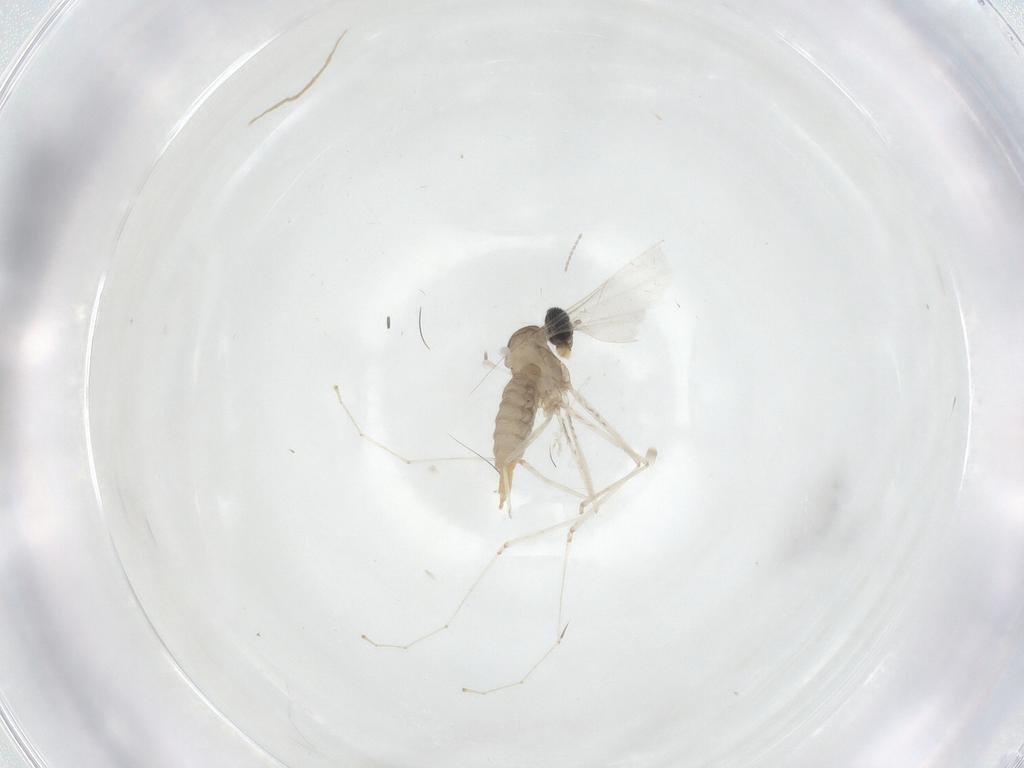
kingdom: Animalia
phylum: Arthropoda
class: Insecta
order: Diptera
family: Cecidomyiidae
